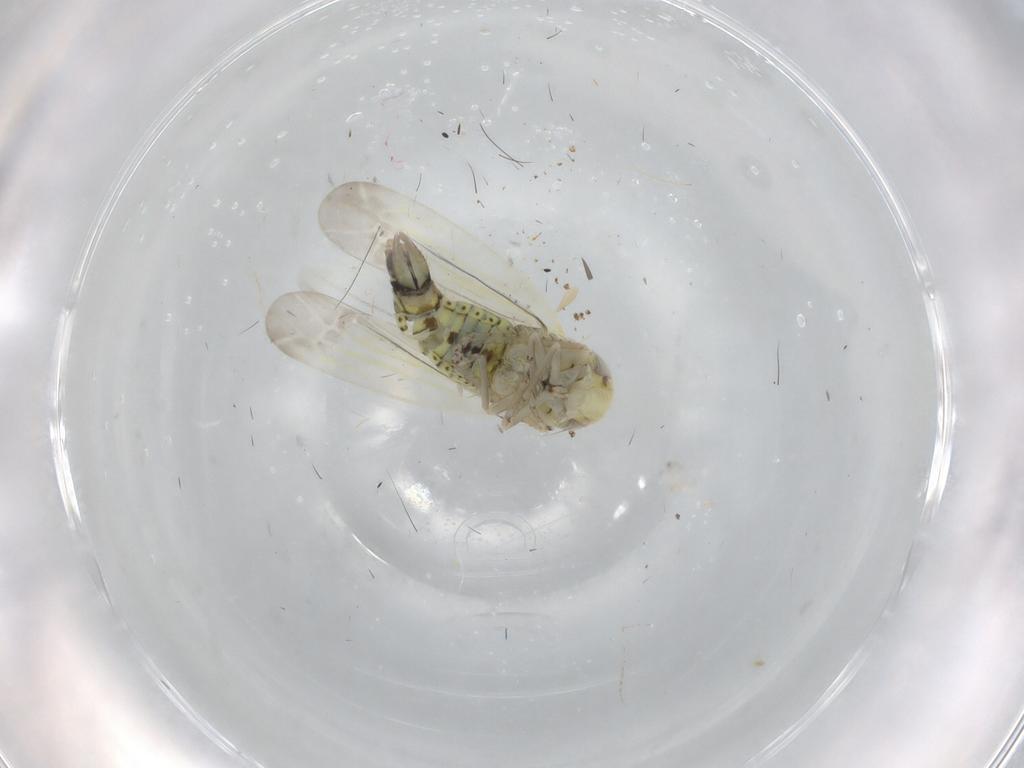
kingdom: Animalia
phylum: Arthropoda
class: Insecta
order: Hemiptera
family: Cicadellidae
